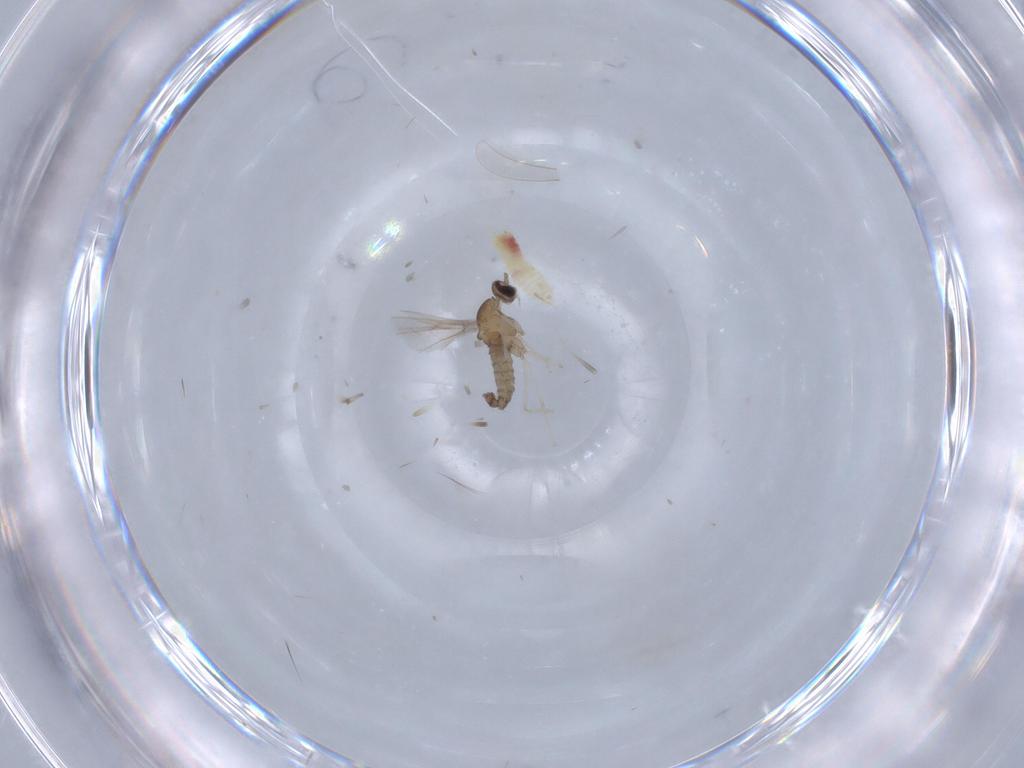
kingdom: Animalia
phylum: Arthropoda
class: Insecta
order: Diptera
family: Cecidomyiidae
